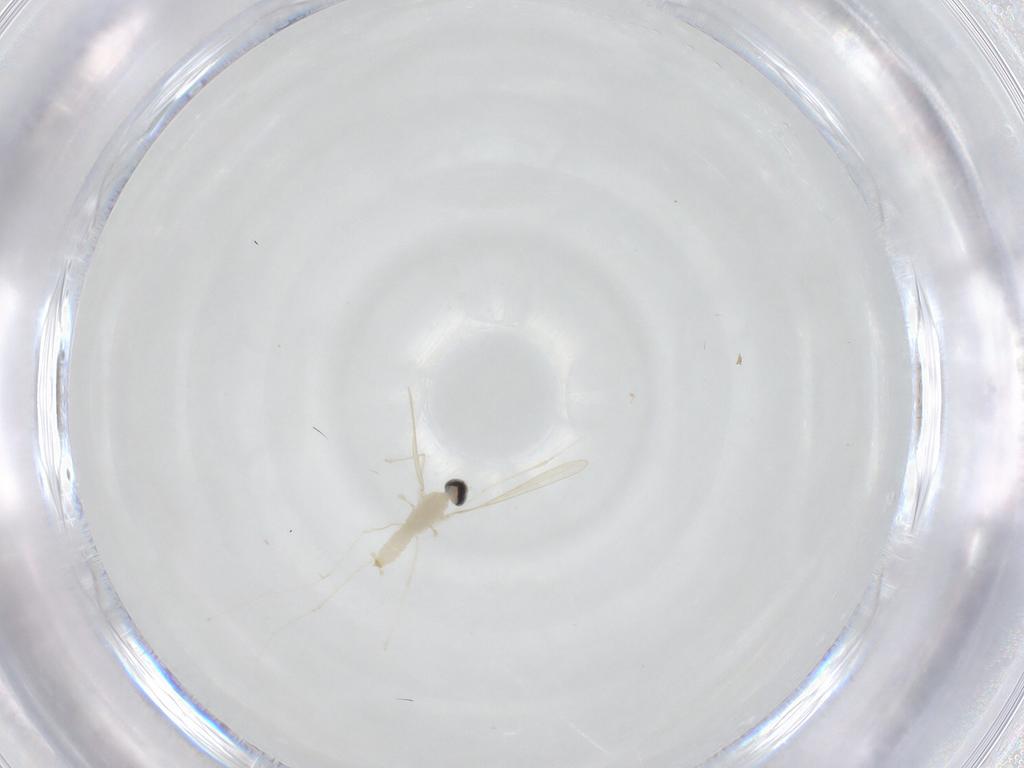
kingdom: Animalia
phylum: Arthropoda
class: Insecta
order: Diptera
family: Cecidomyiidae
